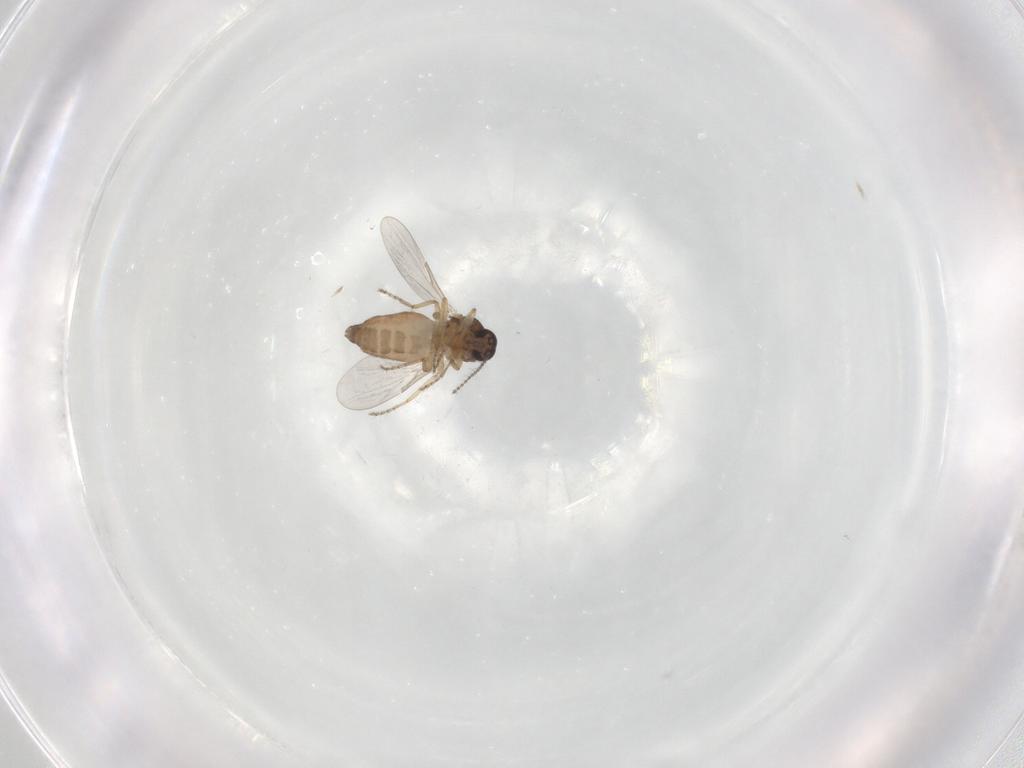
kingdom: Animalia
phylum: Arthropoda
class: Insecta
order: Diptera
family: Ceratopogonidae
